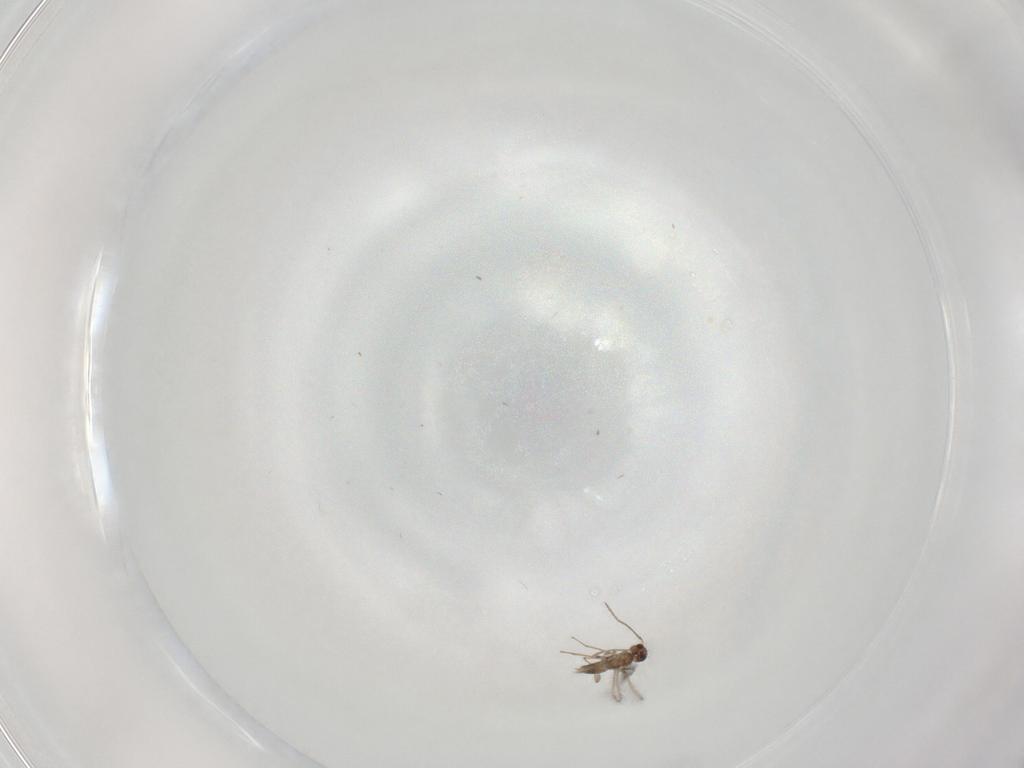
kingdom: Animalia
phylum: Arthropoda
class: Insecta
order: Hymenoptera
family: Mymaridae
